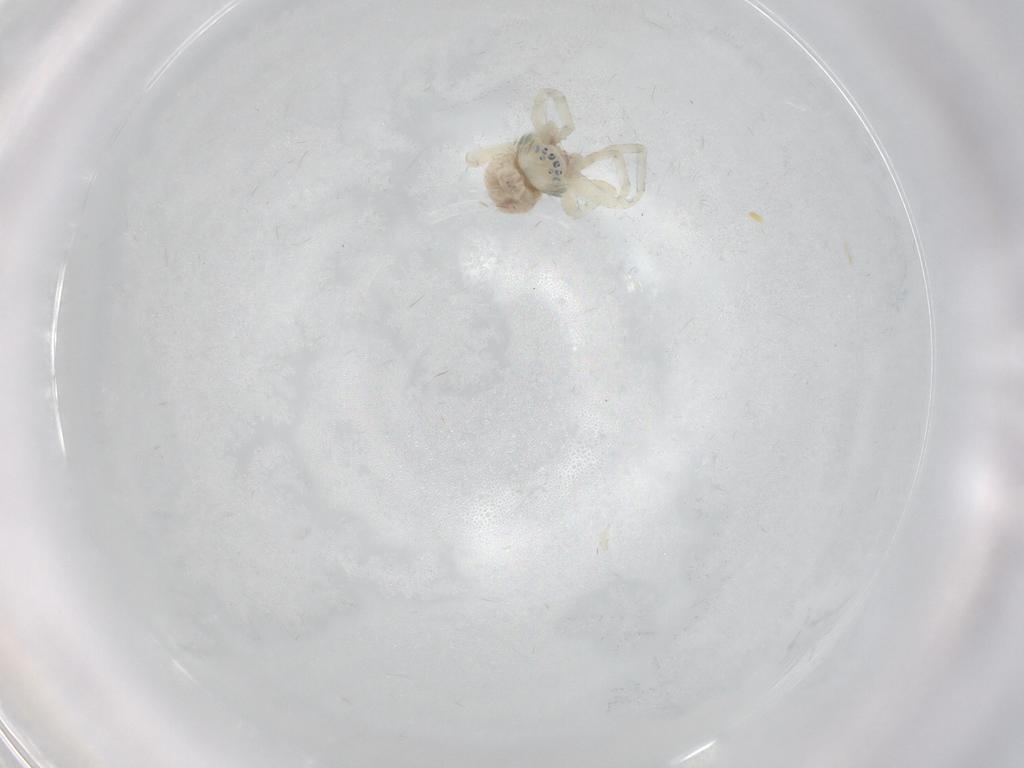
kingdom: Animalia
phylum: Arthropoda
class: Arachnida
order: Araneae
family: Philodromidae
